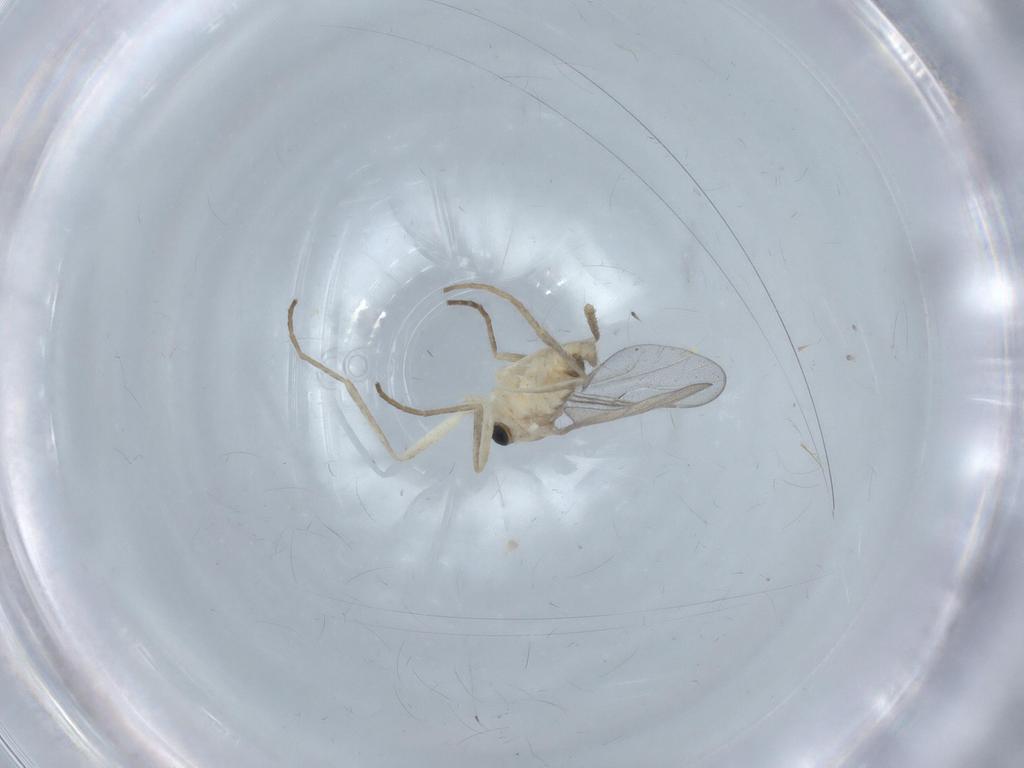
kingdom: Animalia
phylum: Arthropoda
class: Insecta
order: Diptera
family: Cecidomyiidae
